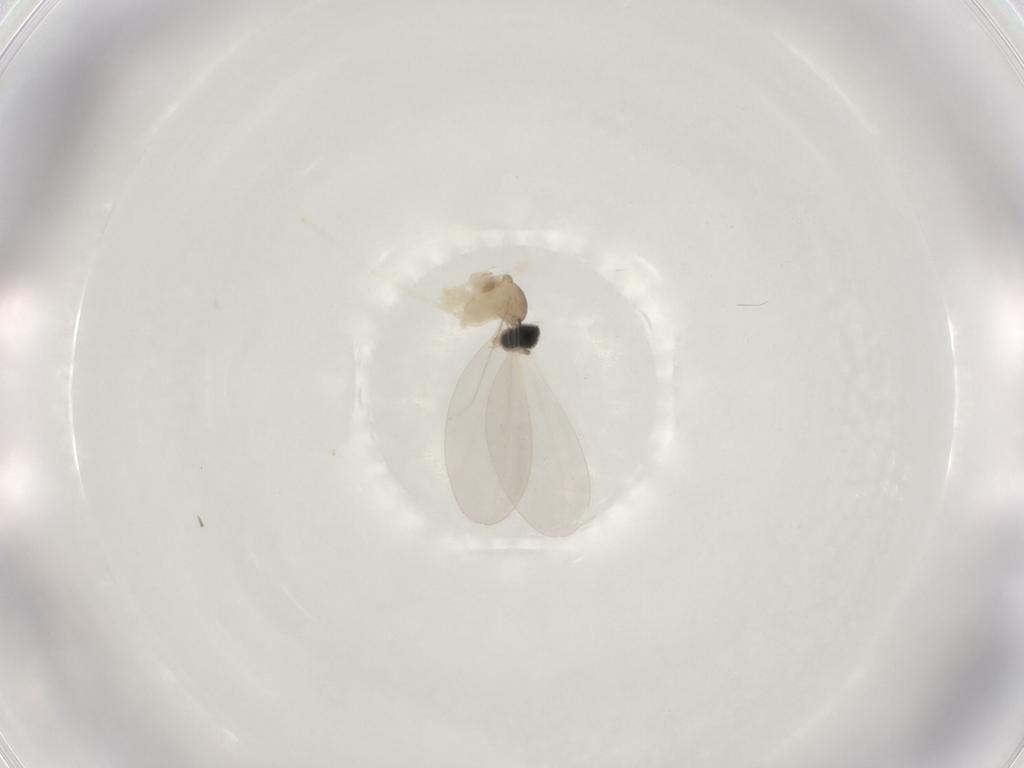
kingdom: Animalia
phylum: Arthropoda
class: Insecta
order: Diptera
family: Cecidomyiidae
